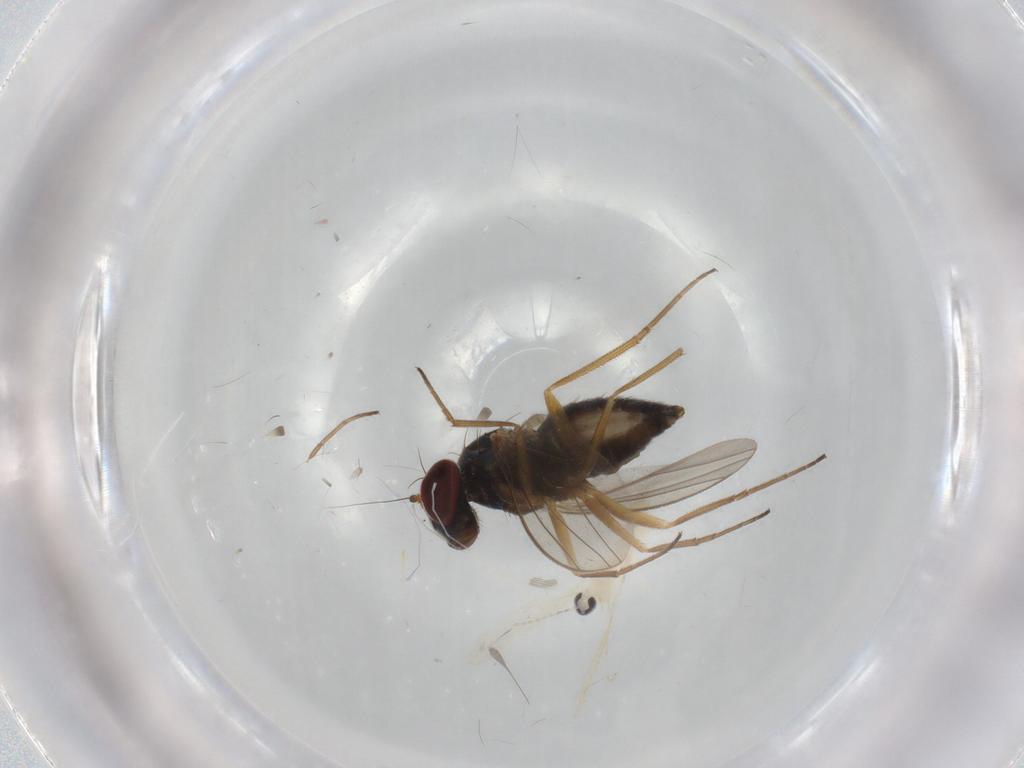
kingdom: Animalia
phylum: Arthropoda
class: Insecta
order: Diptera
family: Cecidomyiidae
